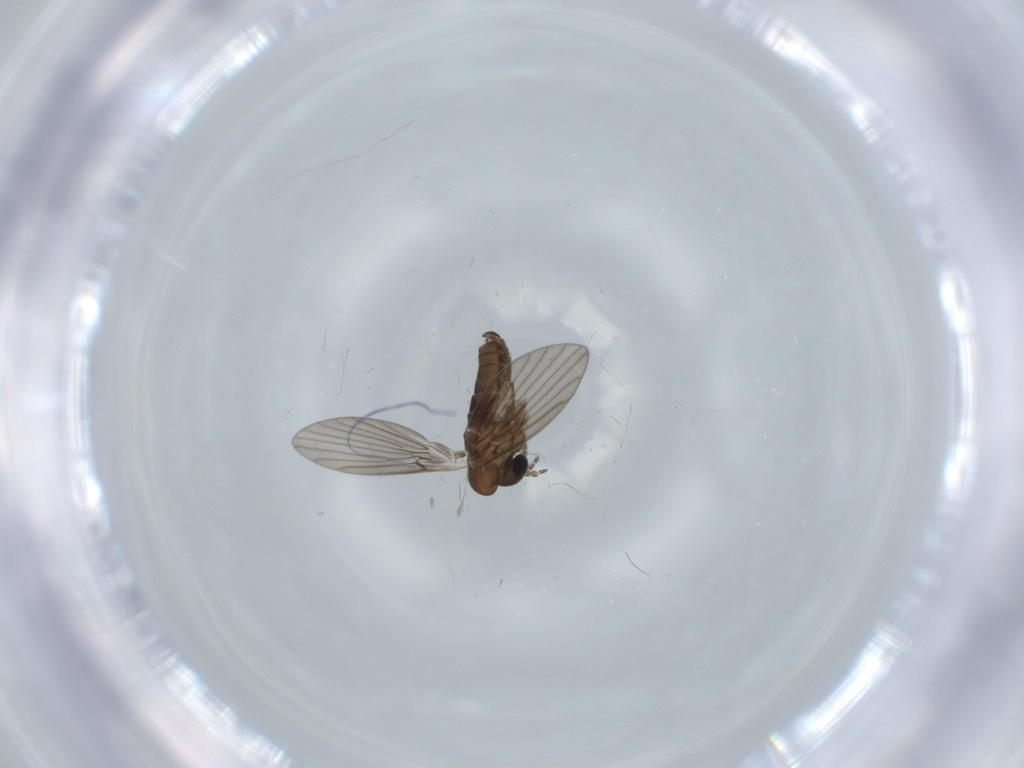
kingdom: Animalia
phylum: Arthropoda
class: Insecta
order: Diptera
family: Psychodidae
